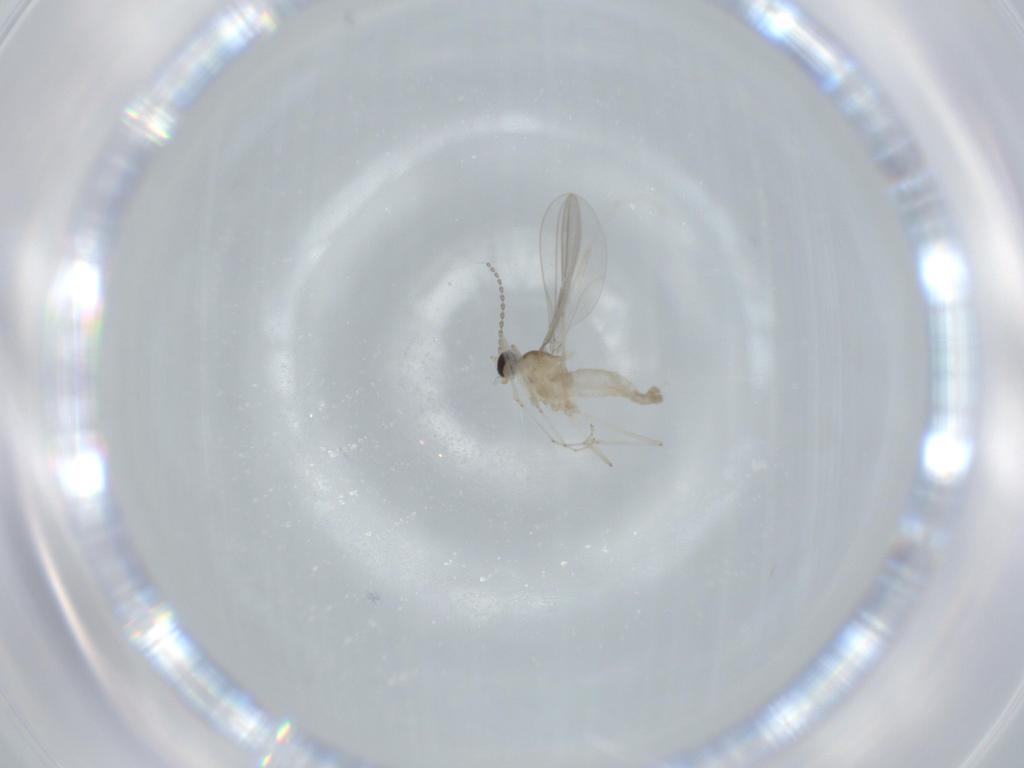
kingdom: Animalia
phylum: Arthropoda
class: Insecta
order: Diptera
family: Cecidomyiidae
